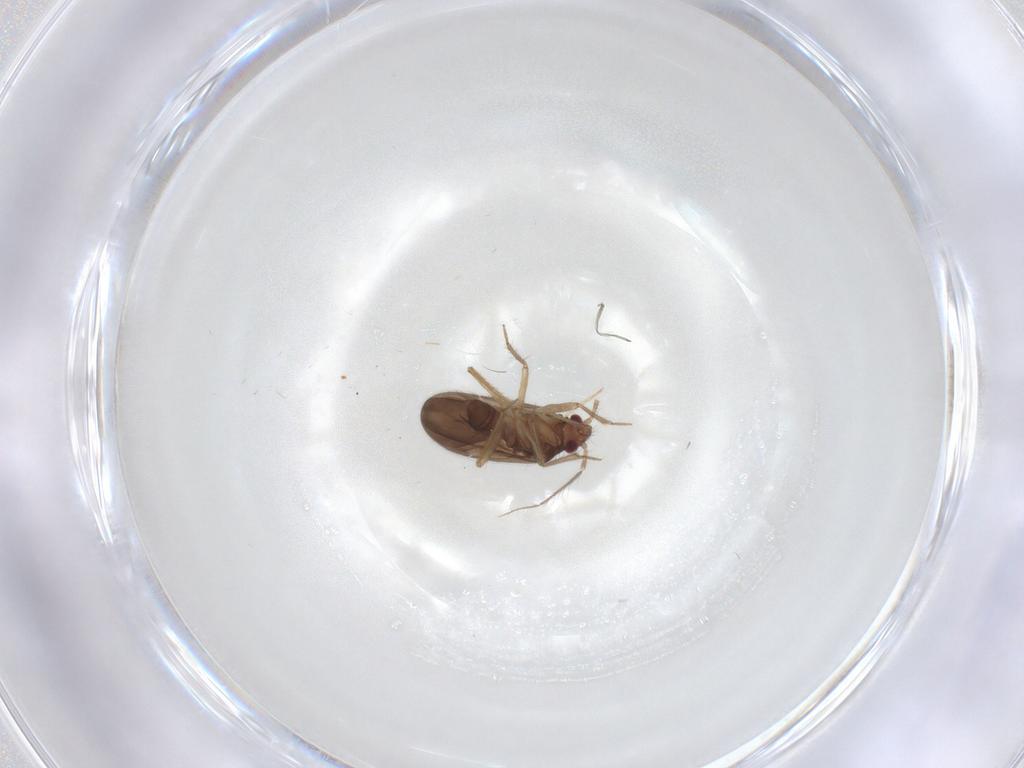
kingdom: Animalia
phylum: Arthropoda
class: Insecta
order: Hemiptera
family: Ceratocombidae
